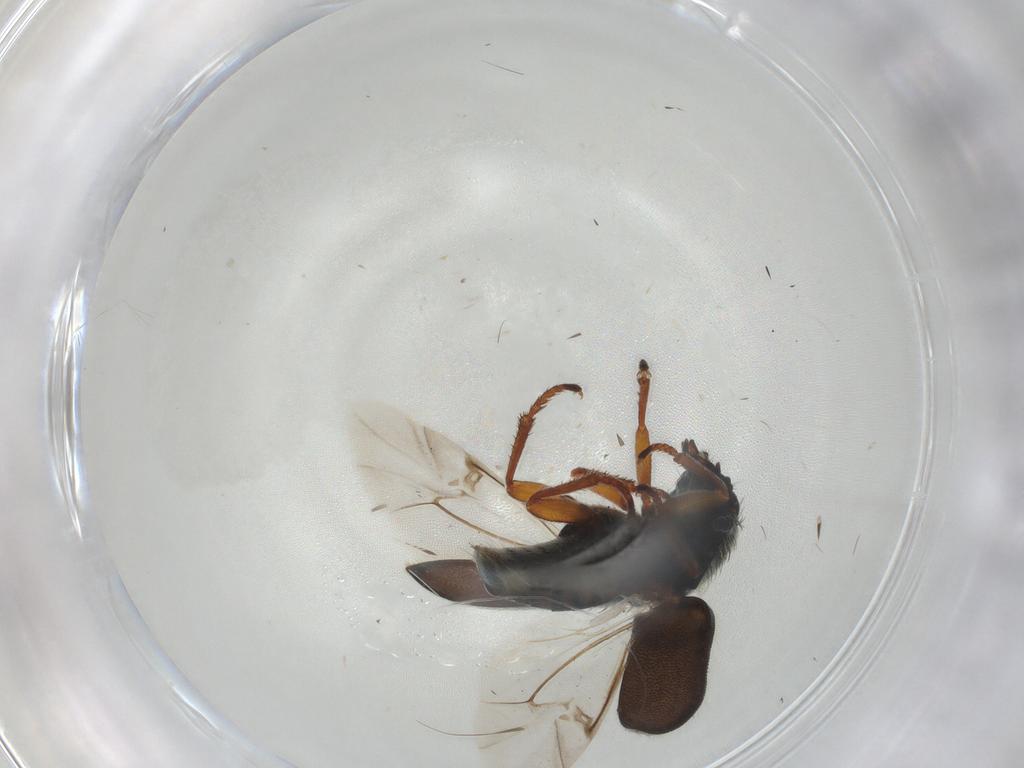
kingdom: Animalia
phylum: Arthropoda
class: Insecta
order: Coleoptera
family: Melyridae
